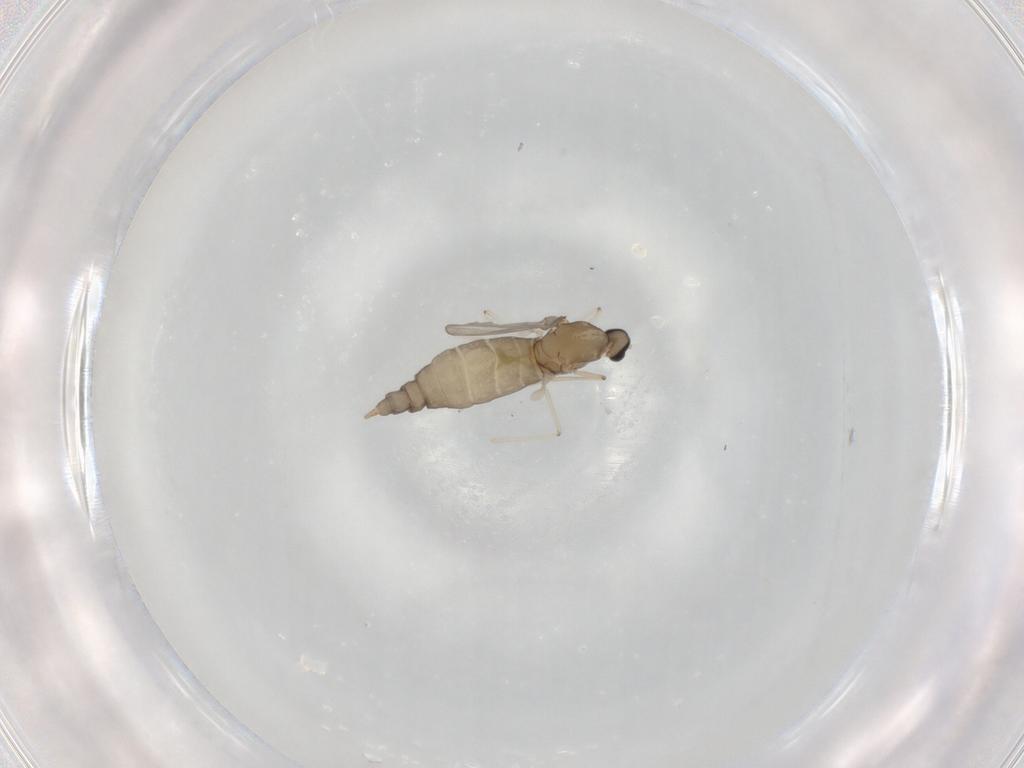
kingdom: Animalia
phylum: Arthropoda
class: Insecta
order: Diptera
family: Cecidomyiidae
